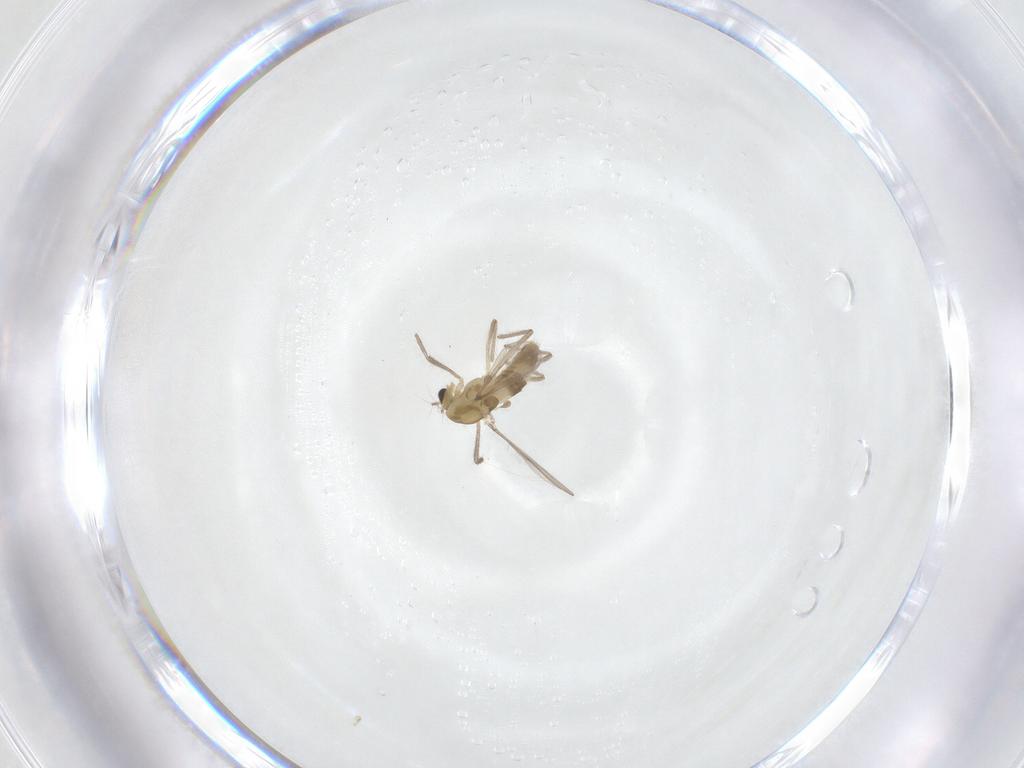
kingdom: Animalia
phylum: Arthropoda
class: Insecta
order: Diptera
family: Chironomidae
